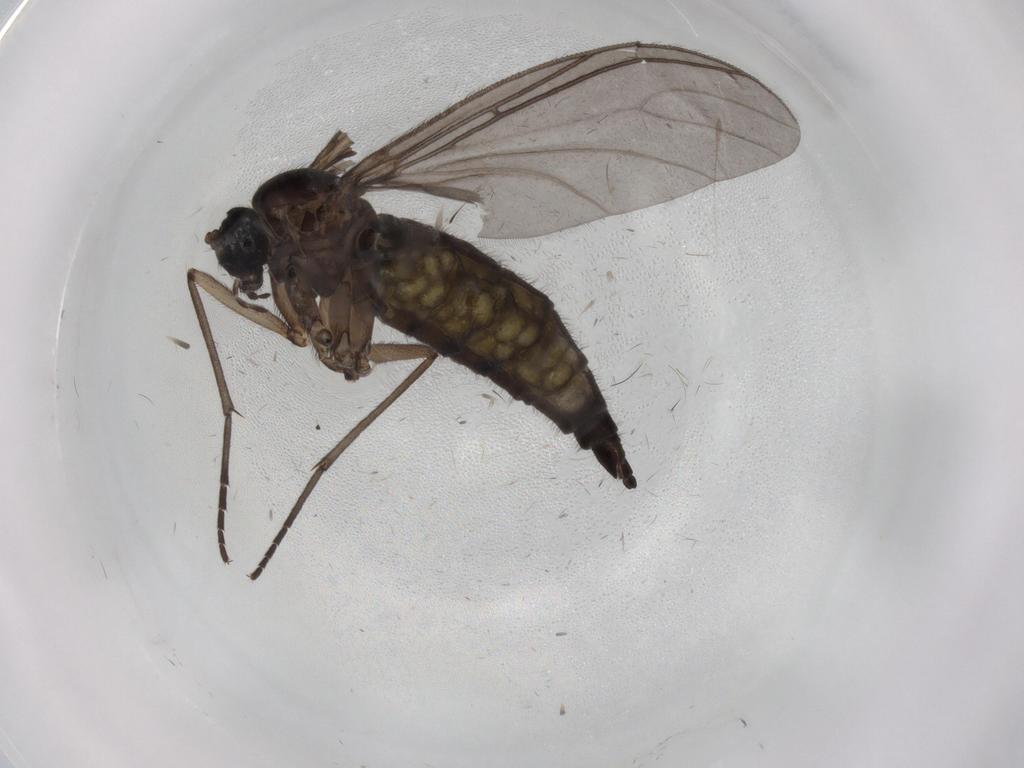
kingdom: Animalia
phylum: Arthropoda
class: Insecta
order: Diptera
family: Sciaridae
